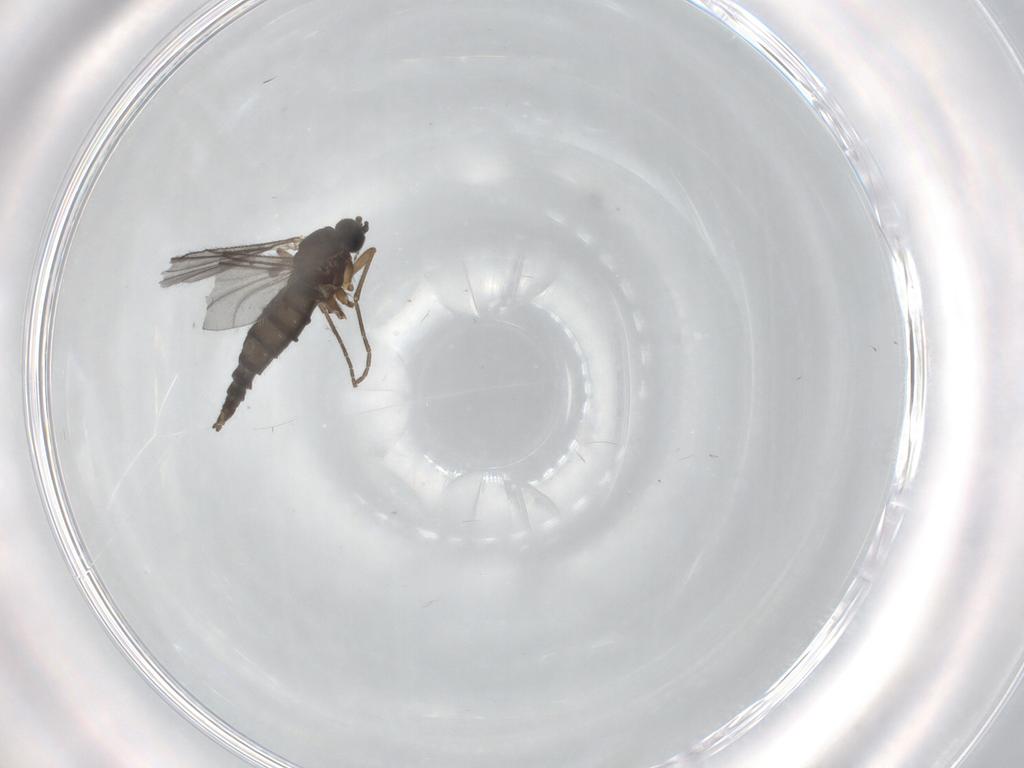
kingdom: Animalia
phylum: Arthropoda
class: Insecta
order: Diptera
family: Sciaridae
